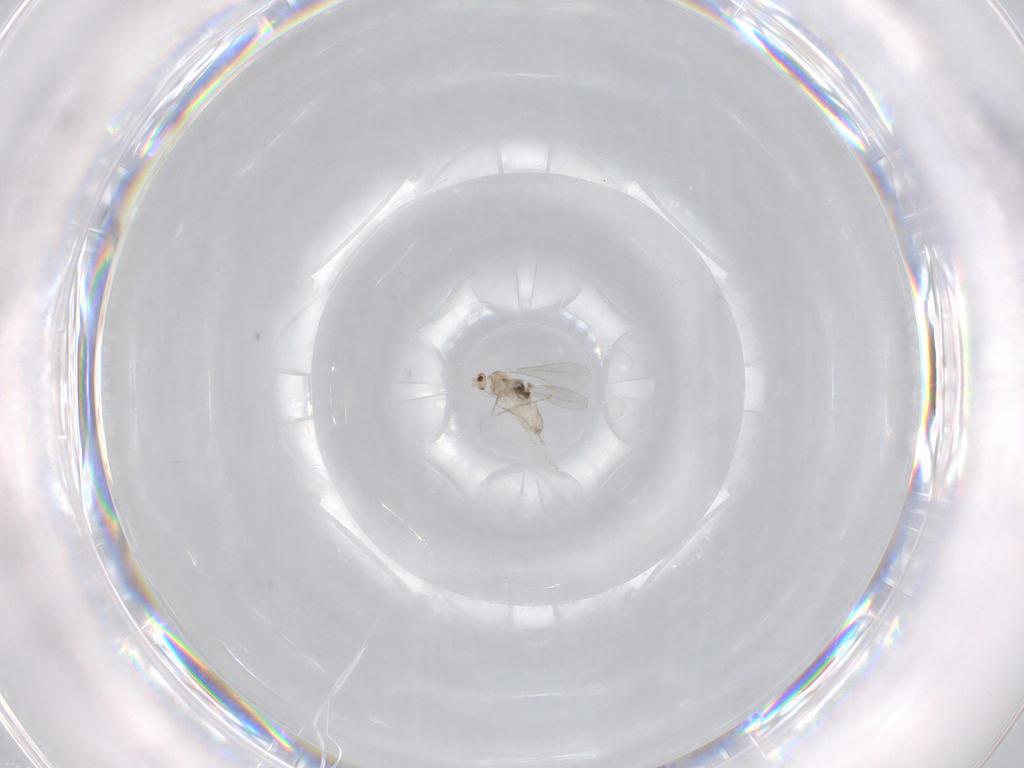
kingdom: Animalia
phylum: Arthropoda
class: Insecta
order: Diptera
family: Cecidomyiidae
